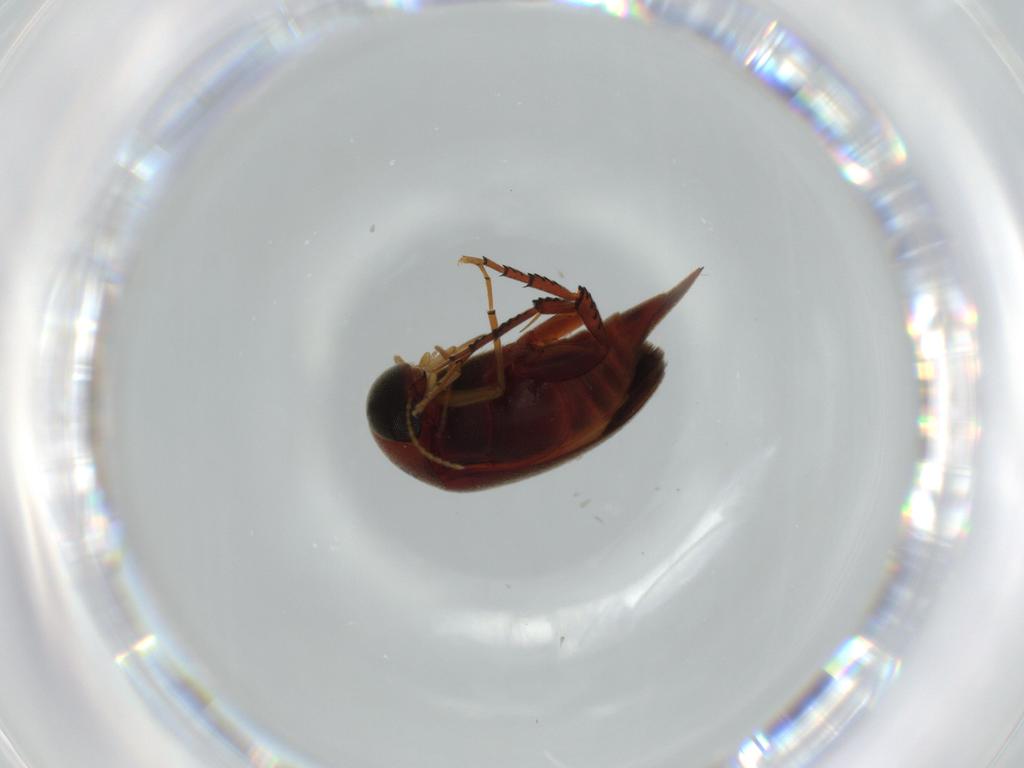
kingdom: Animalia
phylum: Arthropoda
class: Insecta
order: Coleoptera
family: Mordellidae
